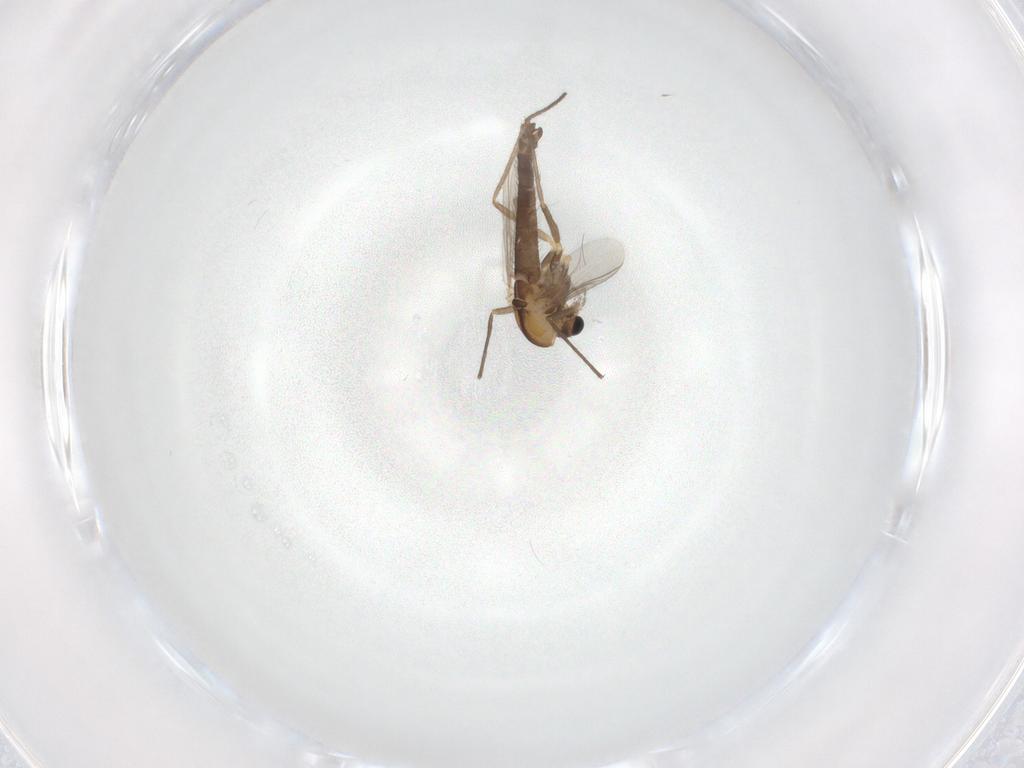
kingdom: Animalia
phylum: Arthropoda
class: Insecta
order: Diptera
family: Chironomidae
